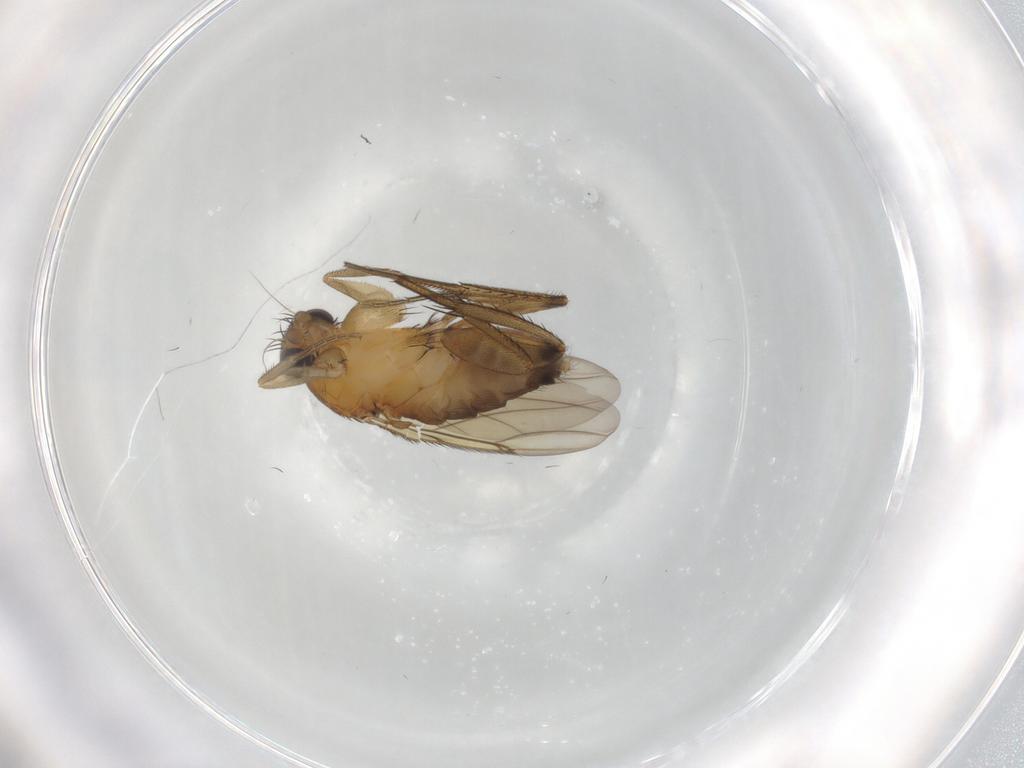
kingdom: Animalia
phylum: Arthropoda
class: Insecta
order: Diptera
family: Phoridae
